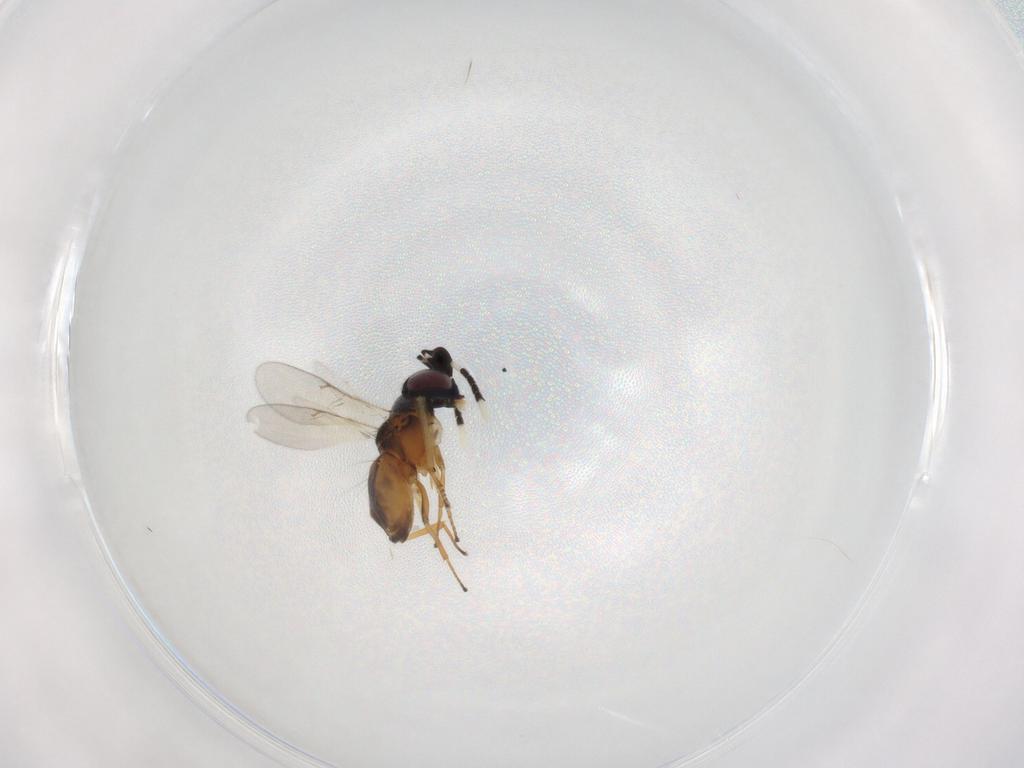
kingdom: Animalia
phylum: Arthropoda
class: Insecta
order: Hymenoptera
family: Encyrtidae
